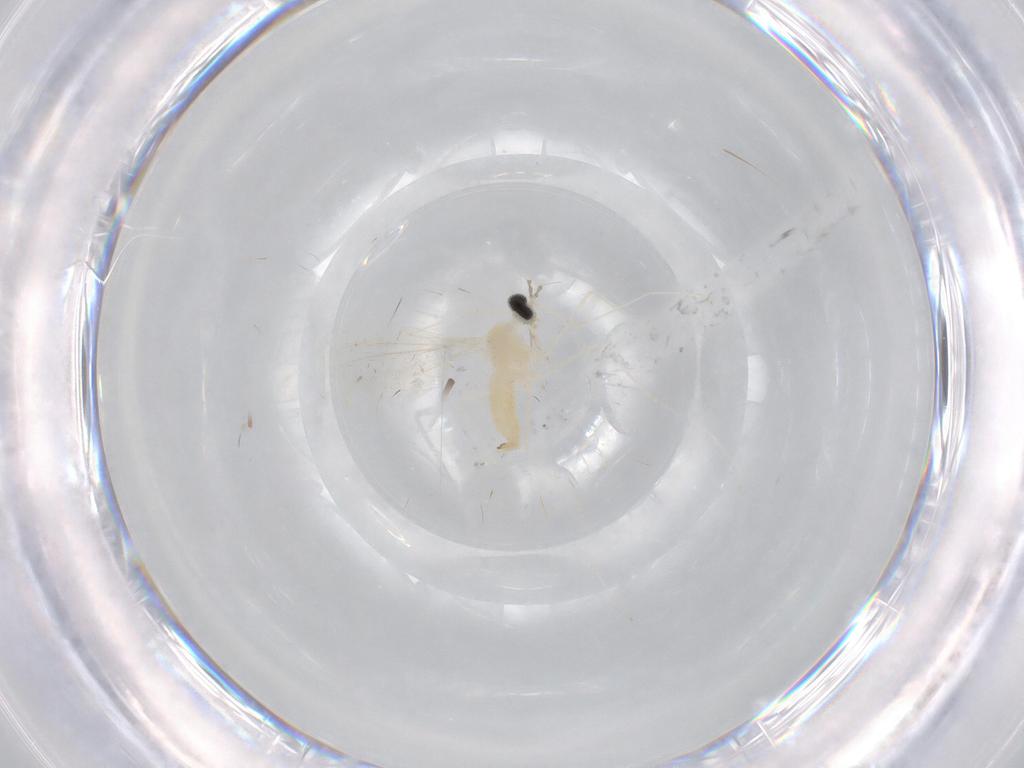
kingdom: Animalia
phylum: Arthropoda
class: Insecta
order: Diptera
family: Cecidomyiidae
